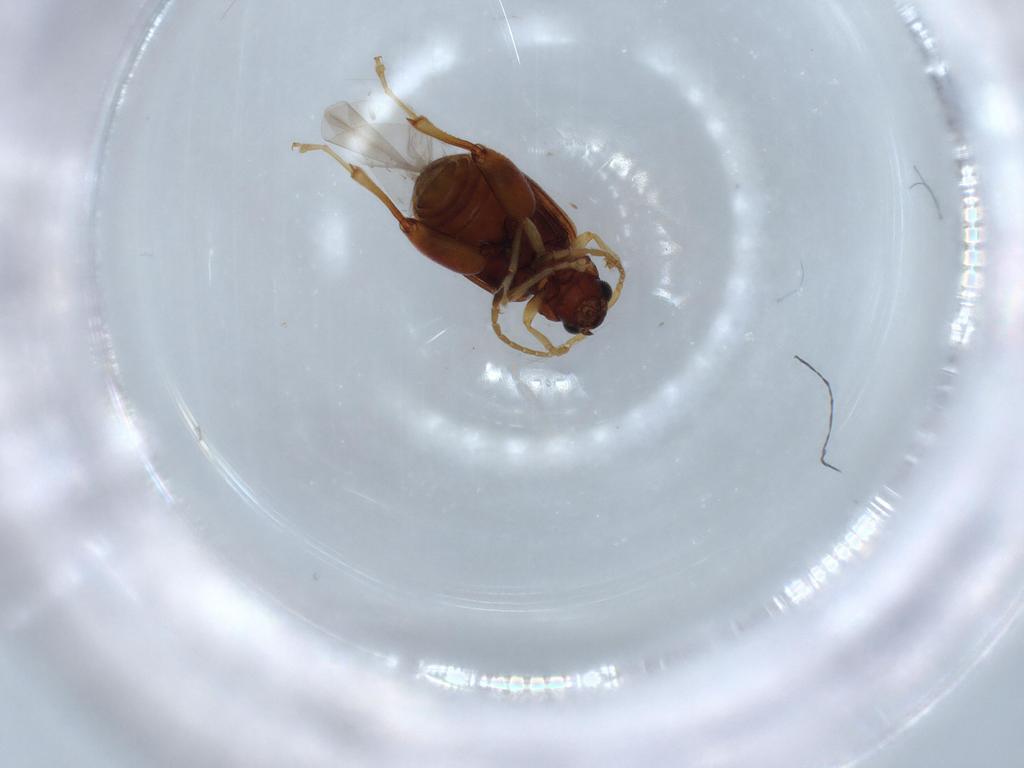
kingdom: Animalia
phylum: Arthropoda
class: Insecta
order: Coleoptera
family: Chrysomelidae
